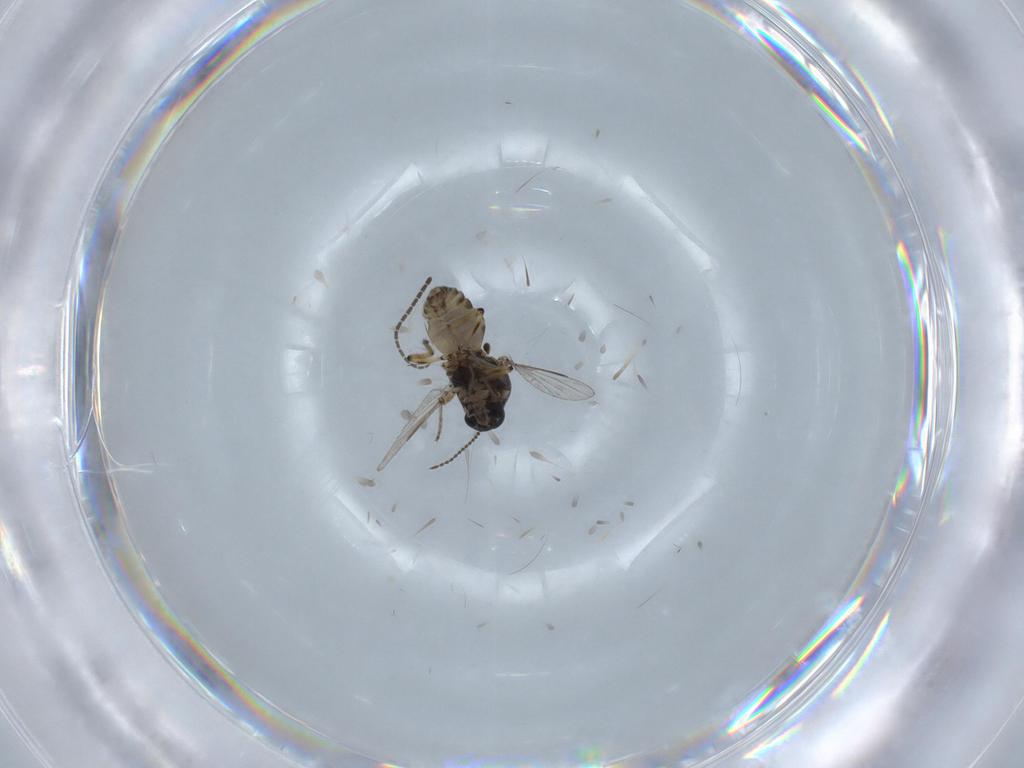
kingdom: Animalia
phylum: Arthropoda
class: Insecta
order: Diptera
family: Sciaridae
